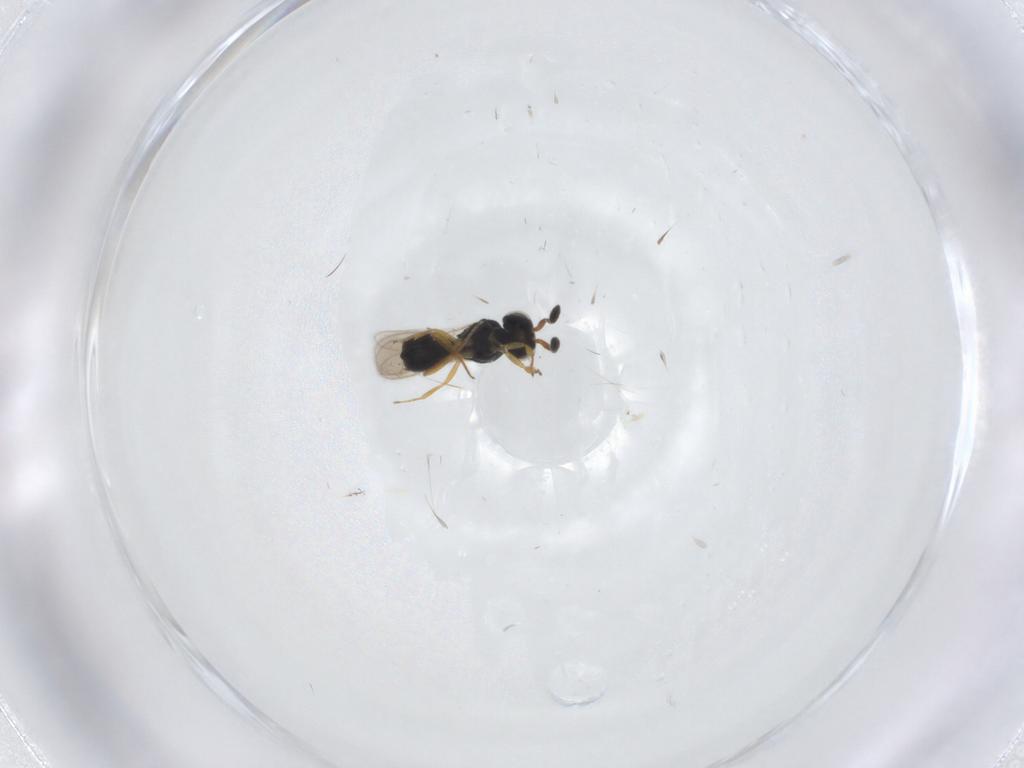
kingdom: Animalia
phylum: Arthropoda
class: Insecta
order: Hymenoptera
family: Scelionidae
